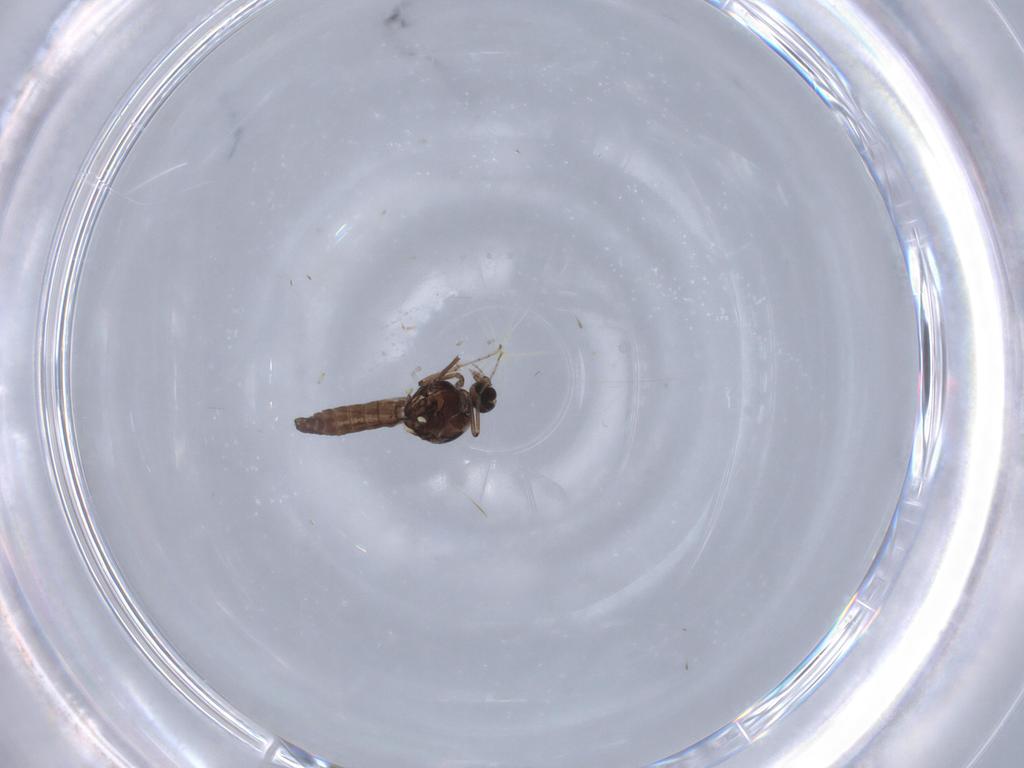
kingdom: Animalia
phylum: Arthropoda
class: Insecta
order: Diptera
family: Ceratopogonidae
